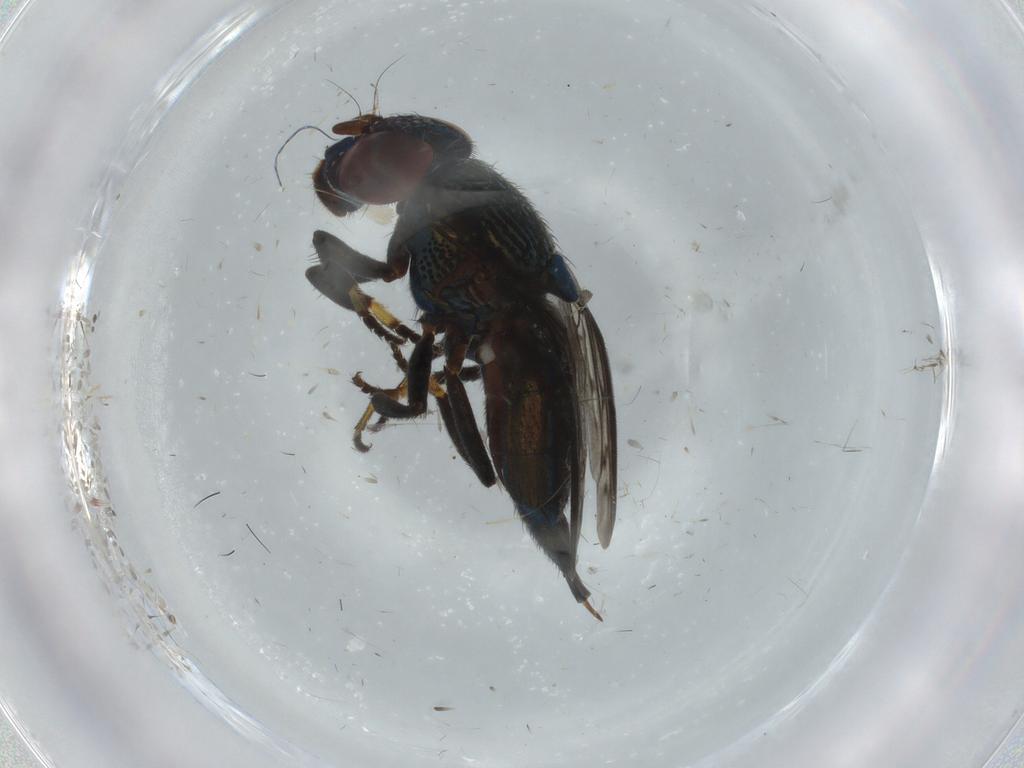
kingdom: Animalia
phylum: Arthropoda
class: Insecta
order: Diptera
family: Cecidomyiidae
